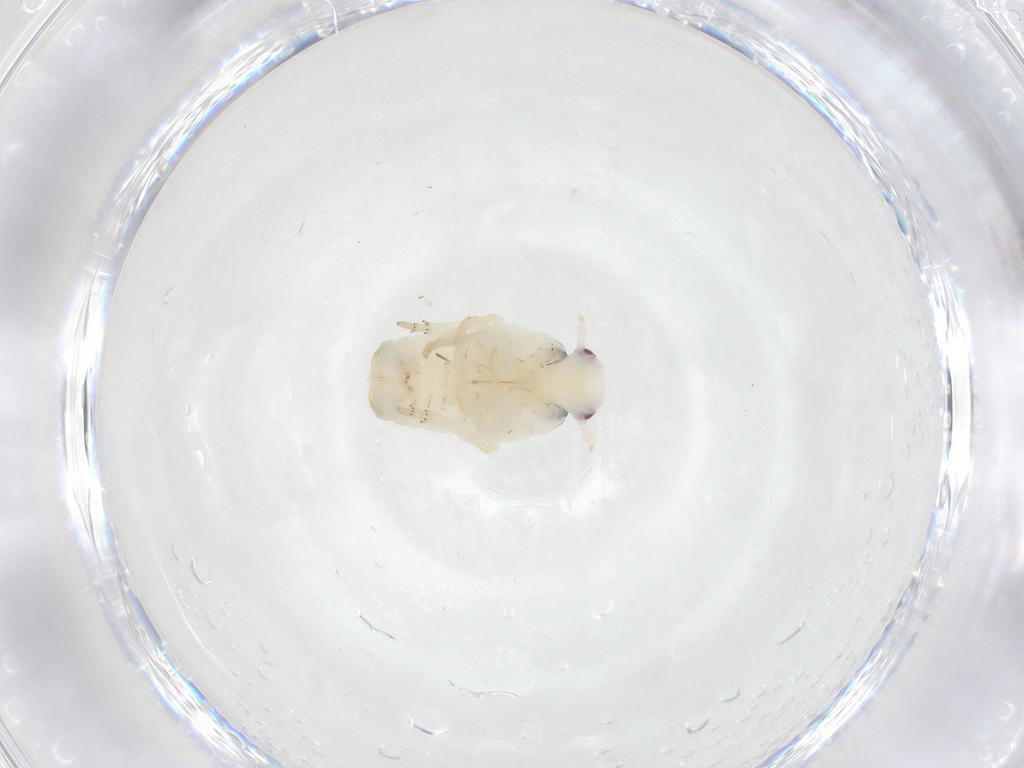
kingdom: Animalia
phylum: Arthropoda
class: Insecta
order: Hemiptera
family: Flatidae
